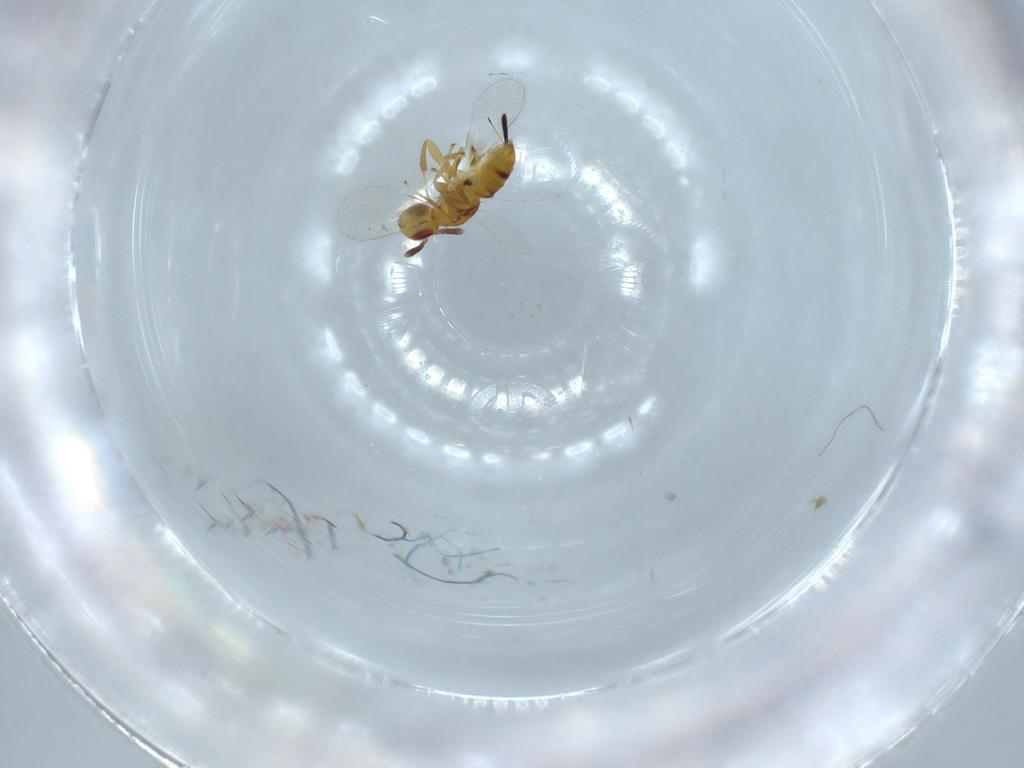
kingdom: Animalia
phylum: Arthropoda
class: Insecta
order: Hymenoptera
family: Torymidae
